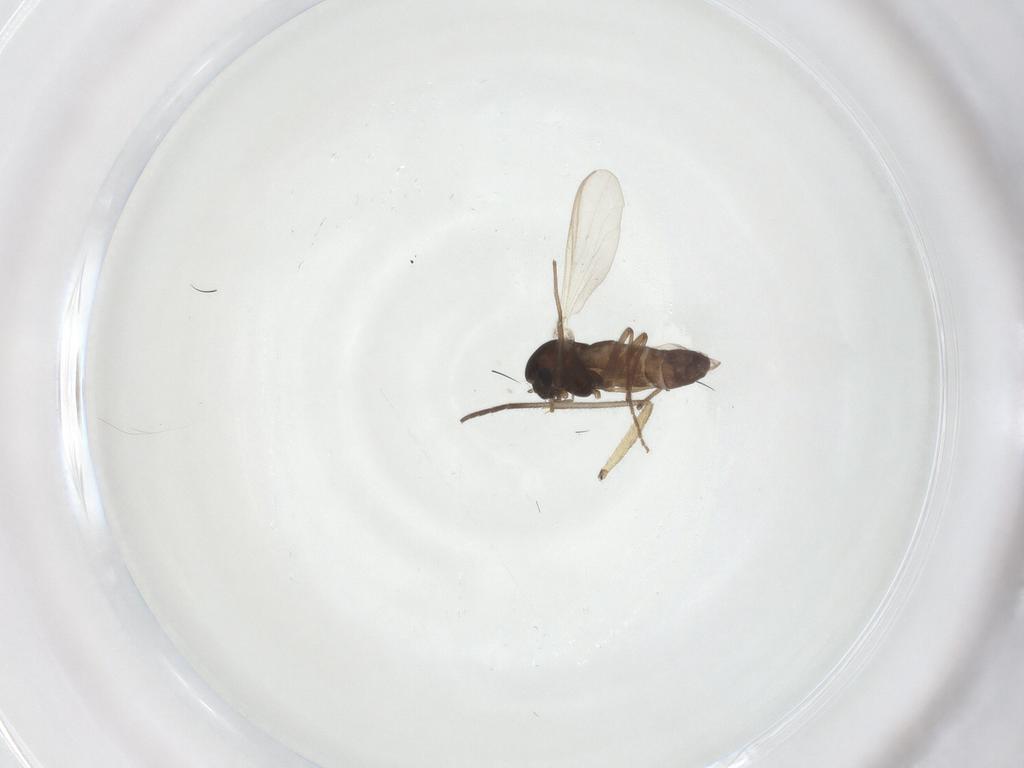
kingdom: Animalia
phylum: Arthropoda
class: Insecta
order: Diptera
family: Sciaridae
